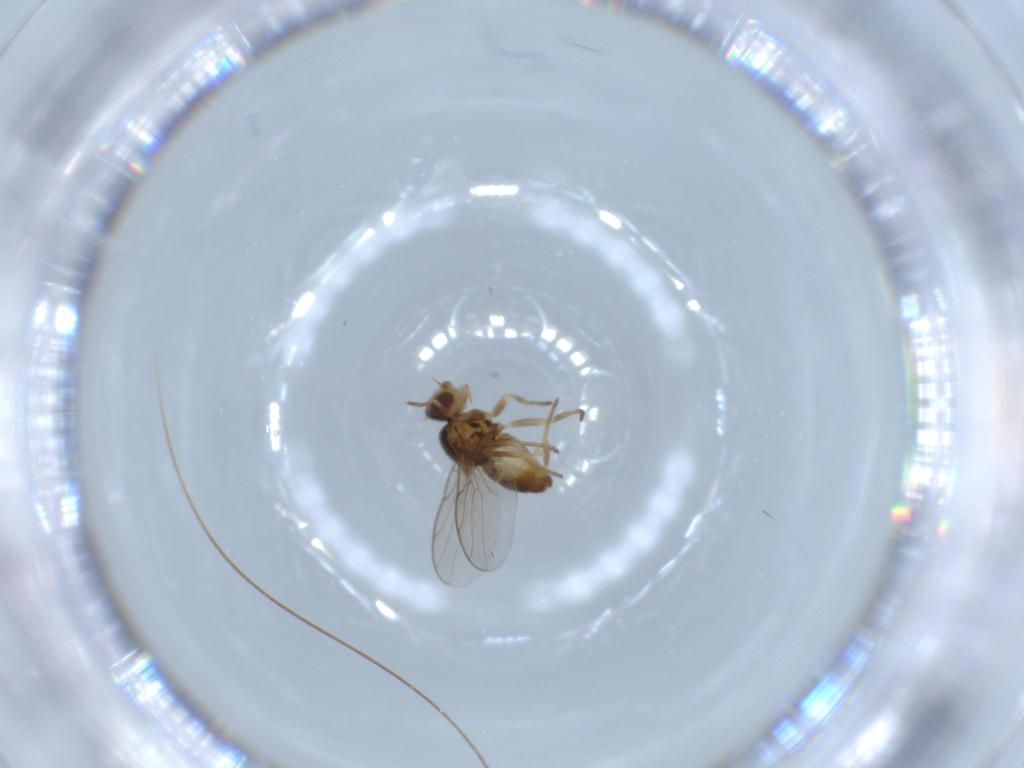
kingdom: Animalia
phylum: Arthropoda
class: Insecta
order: Diptera
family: Chloropidae
